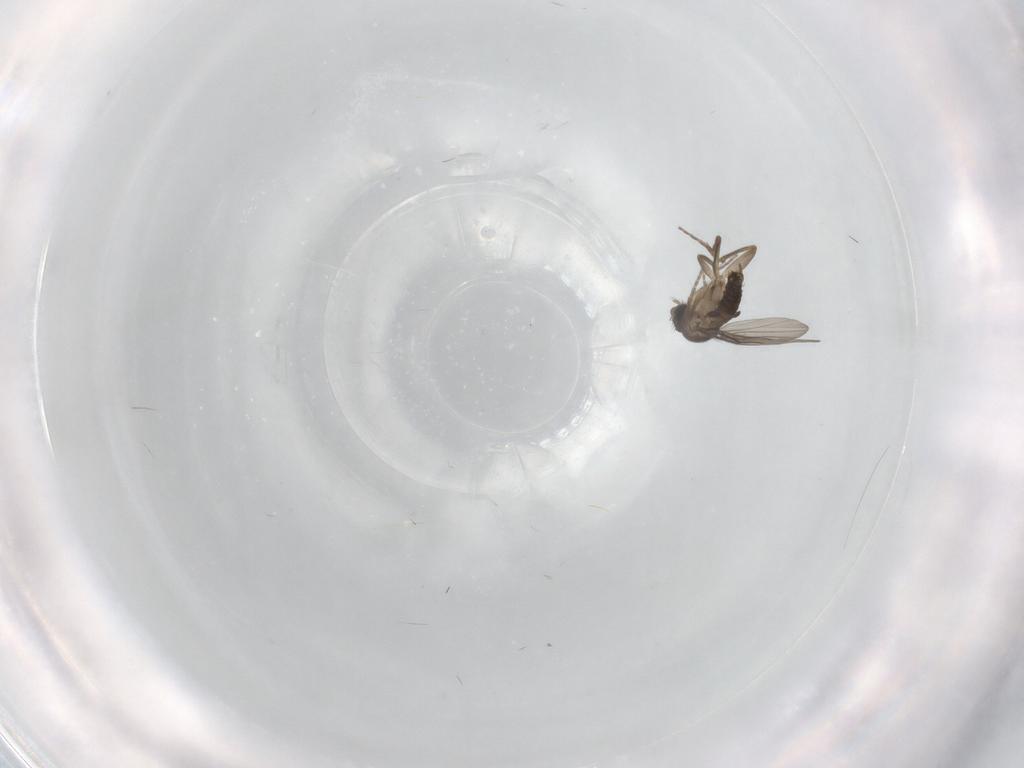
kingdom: Animalia
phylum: Arthropoda
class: Insecta
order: Diptera
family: Phoridae
